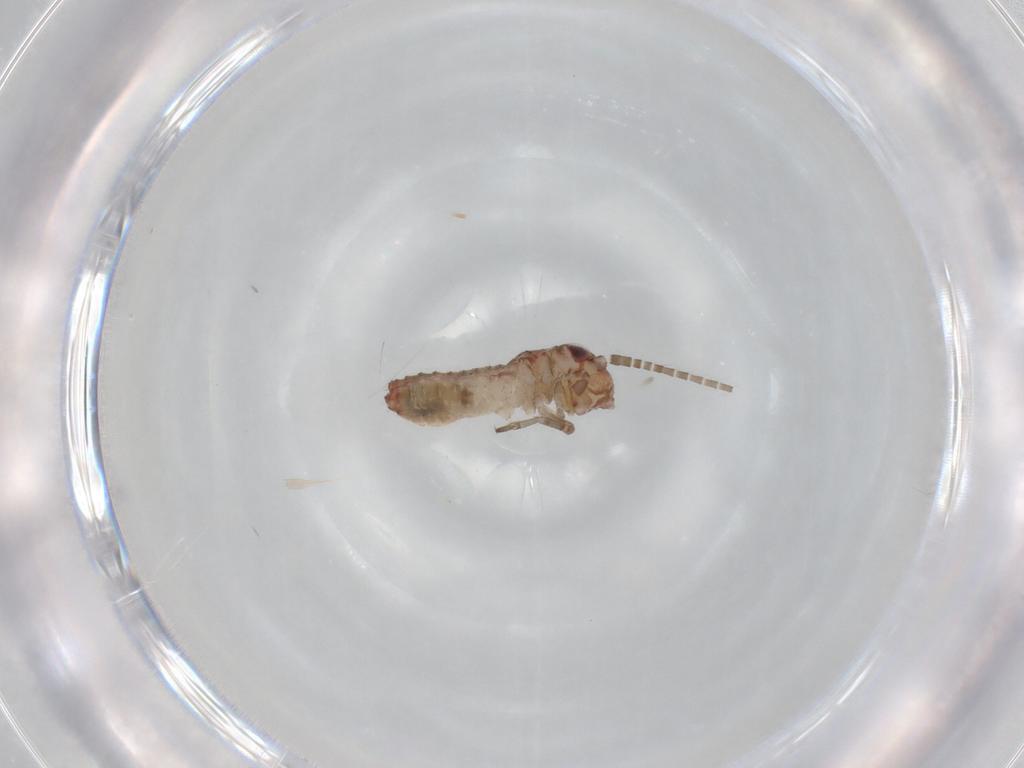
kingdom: Animalia
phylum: Arthropoda
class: Insecta
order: Orthoptera
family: Mogoplistidae
